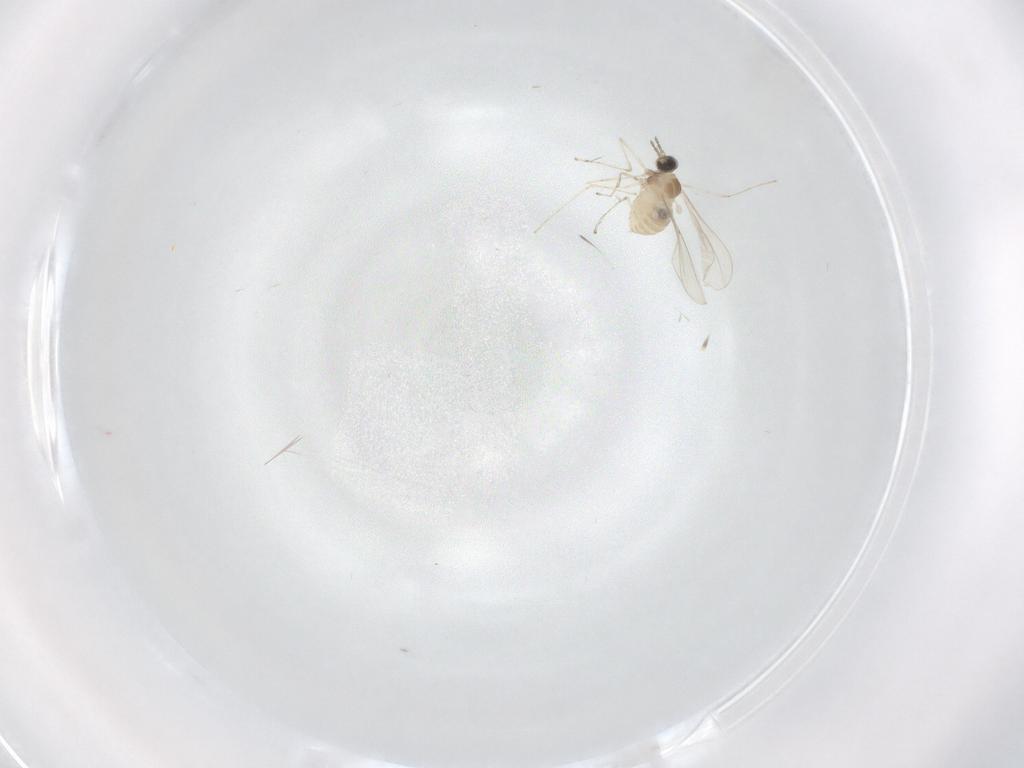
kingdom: Animalia
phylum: Arthropoda
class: Insecta
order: Diptera
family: Cecidomyiidae
